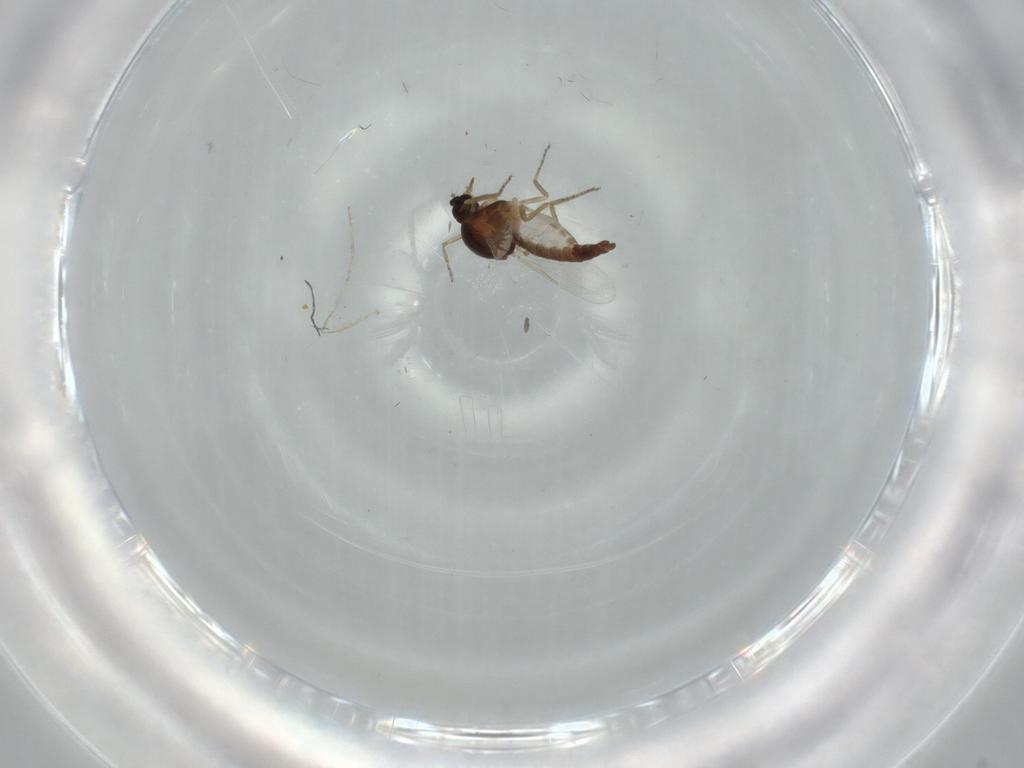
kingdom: Animalia
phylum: Arthropoda
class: Insecta
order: Diptera
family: Ceratopogonidae
